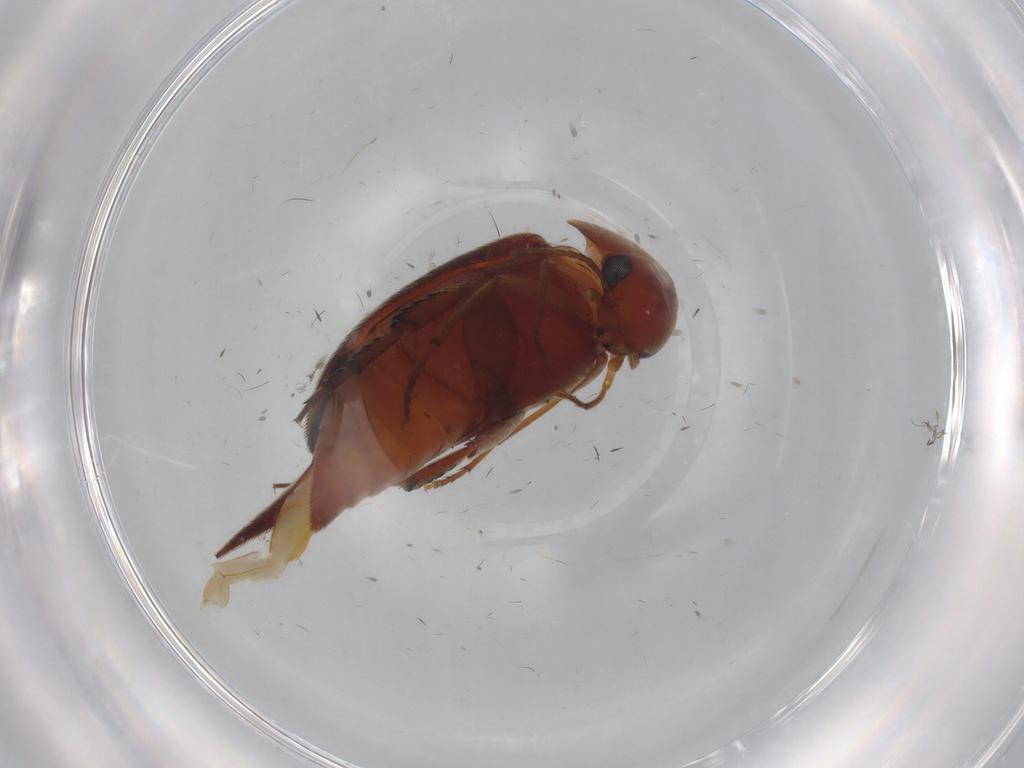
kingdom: Animalia
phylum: Arthropoda
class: Insecta
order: Coleoptera
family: Mordellidae
